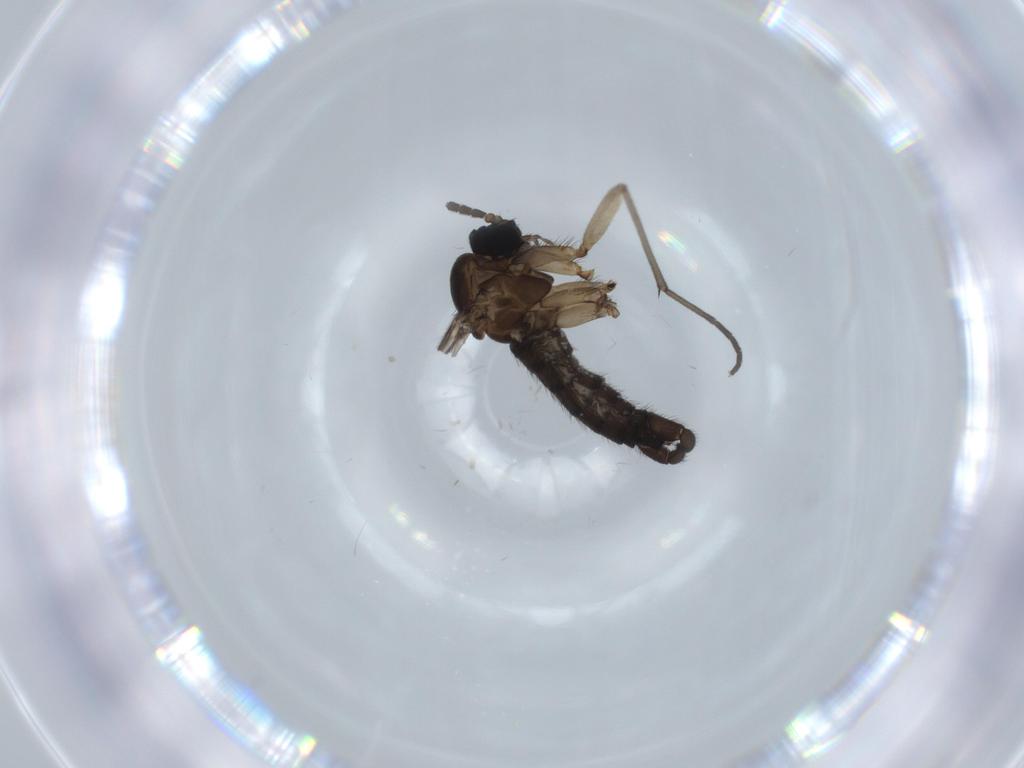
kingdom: Animalia
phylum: Arthropoda
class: Insecta
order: Diptera
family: Sciaridae
